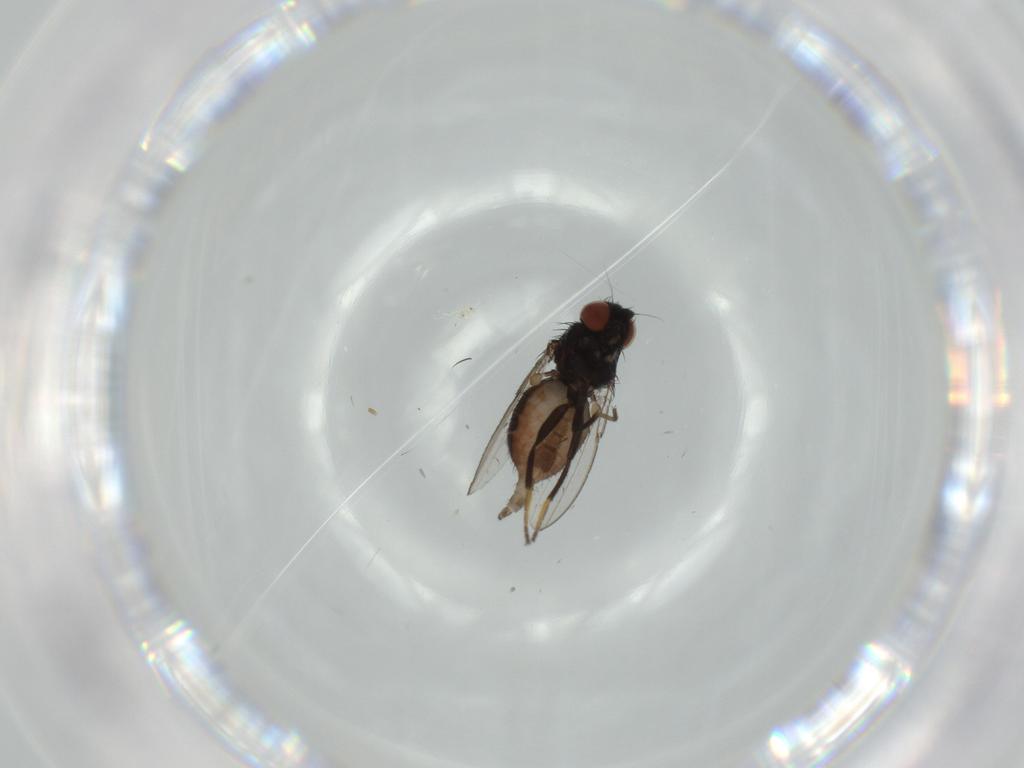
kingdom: Animalia
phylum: Arthropoda
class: Insecta
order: Diptera
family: Milichiidae
